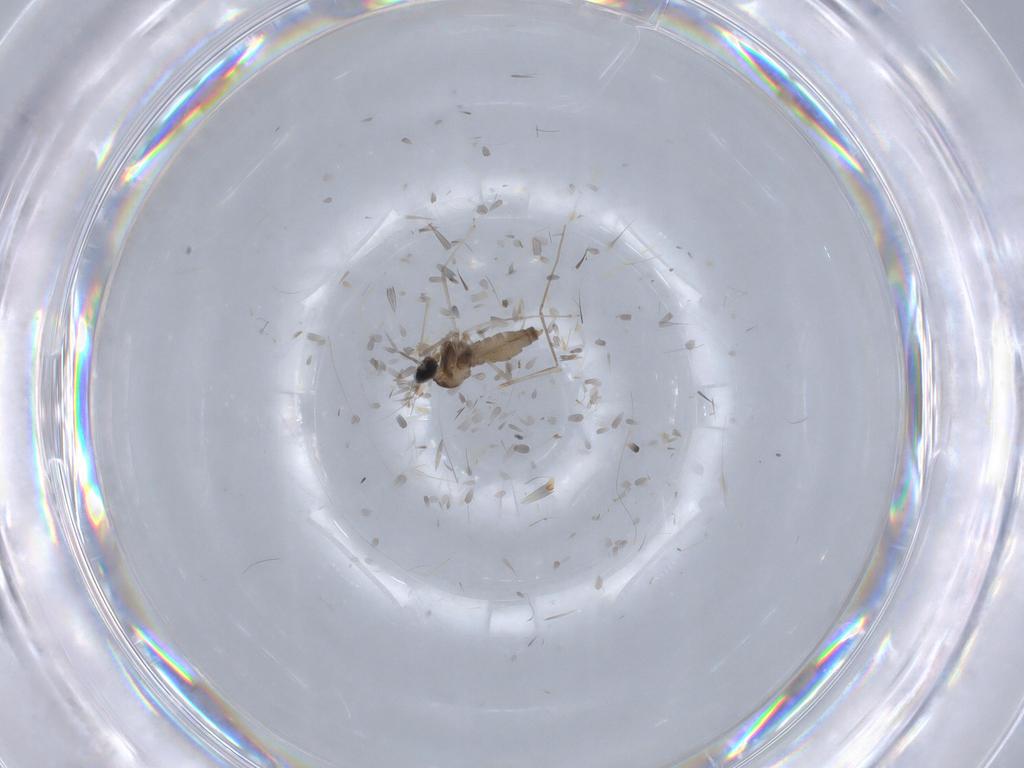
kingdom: Animalia
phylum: Arthropoda
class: Insecta
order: Diptera
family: Cecidomyiidae
